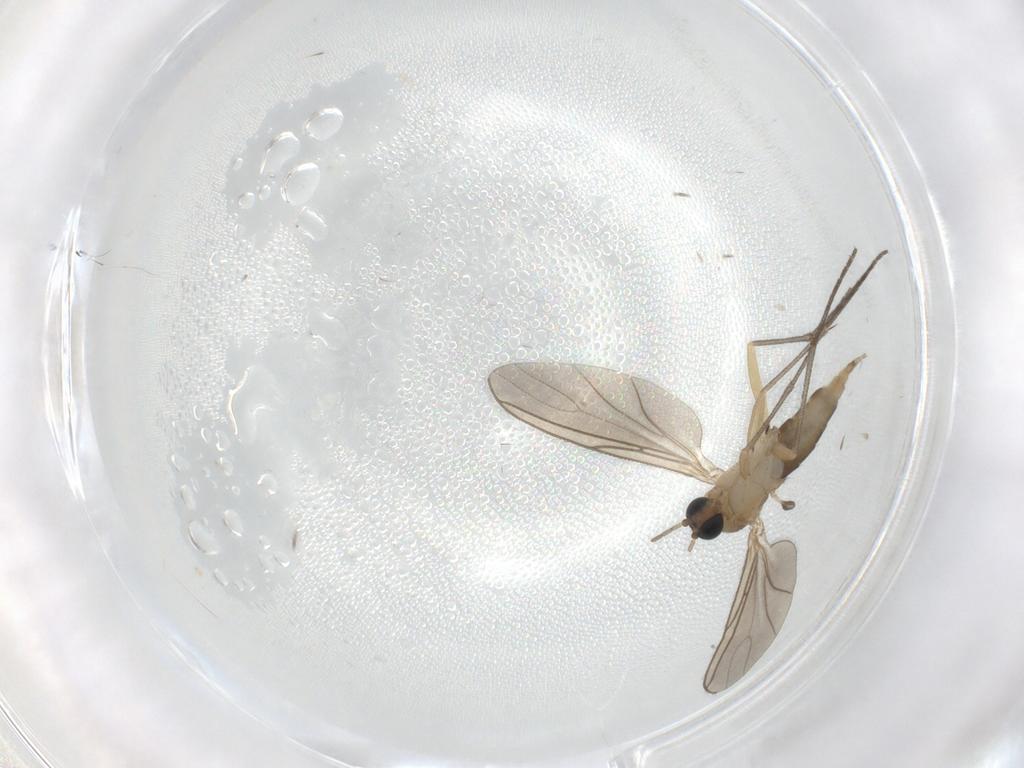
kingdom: Animalia
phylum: Arthropoda
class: Insecta
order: Diptera
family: Sciaridae
